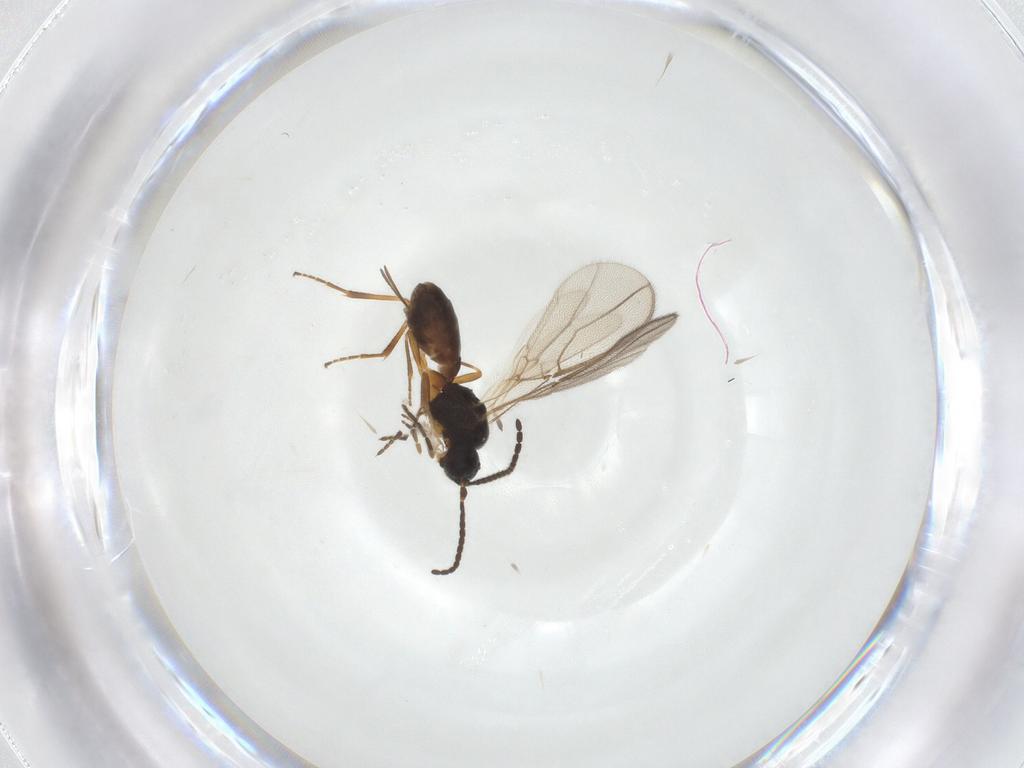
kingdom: Animalia
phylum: Arthropoda
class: Insecta
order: Hymenoptera
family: Braconidae
